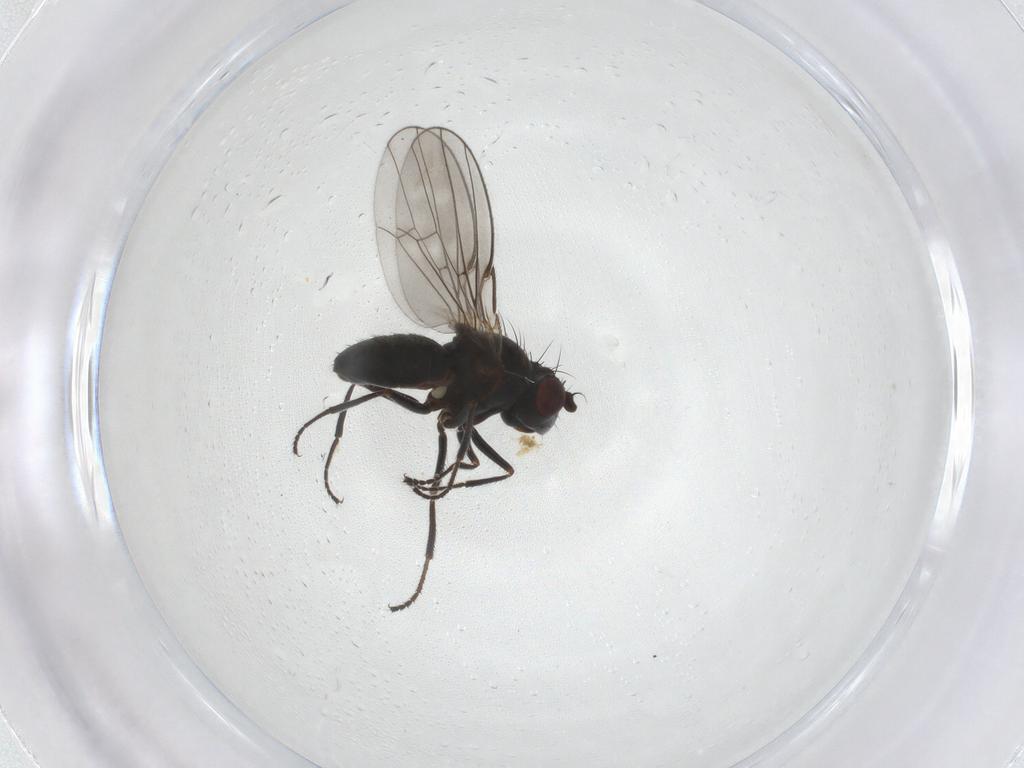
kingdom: Animalia
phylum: Arthropoda
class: Insecta
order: Diptera
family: Ephydridae
